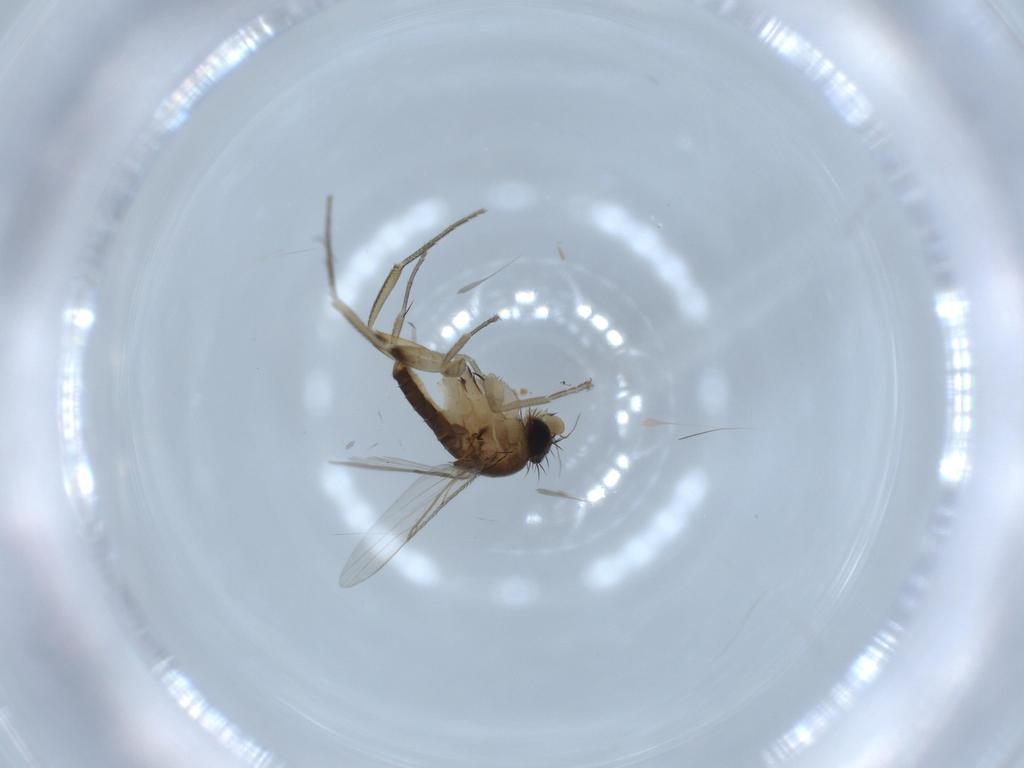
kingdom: Animalia
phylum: Arthropoda
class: Insecta
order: Diptera
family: Phoridae
